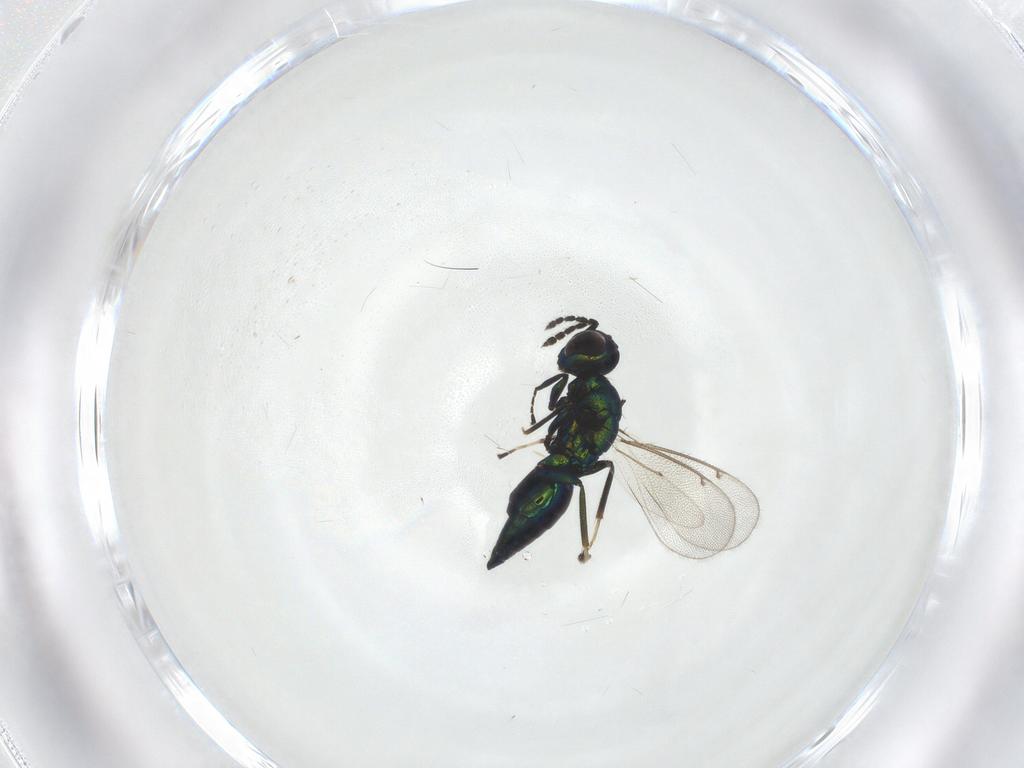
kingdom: Animalia
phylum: Arthropoda
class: Insecta
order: Hymenoptera
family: Eulophidae
